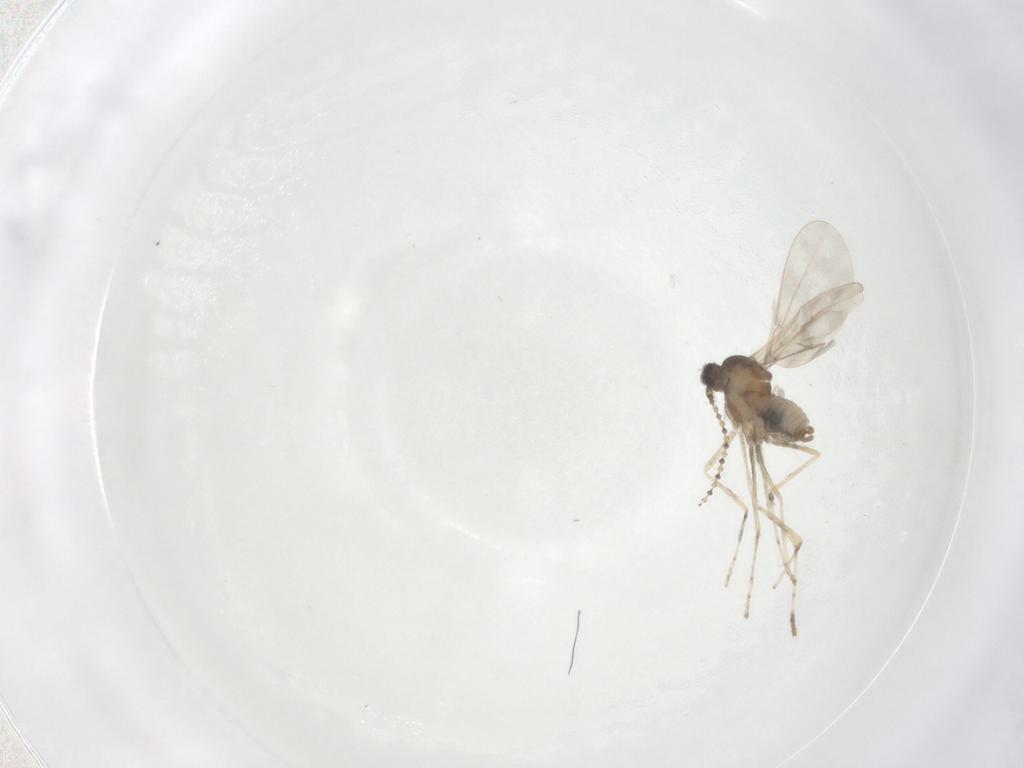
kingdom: Animalia
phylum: Arthropoda
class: Insecta
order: Diptera
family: Cecidomyiidae
